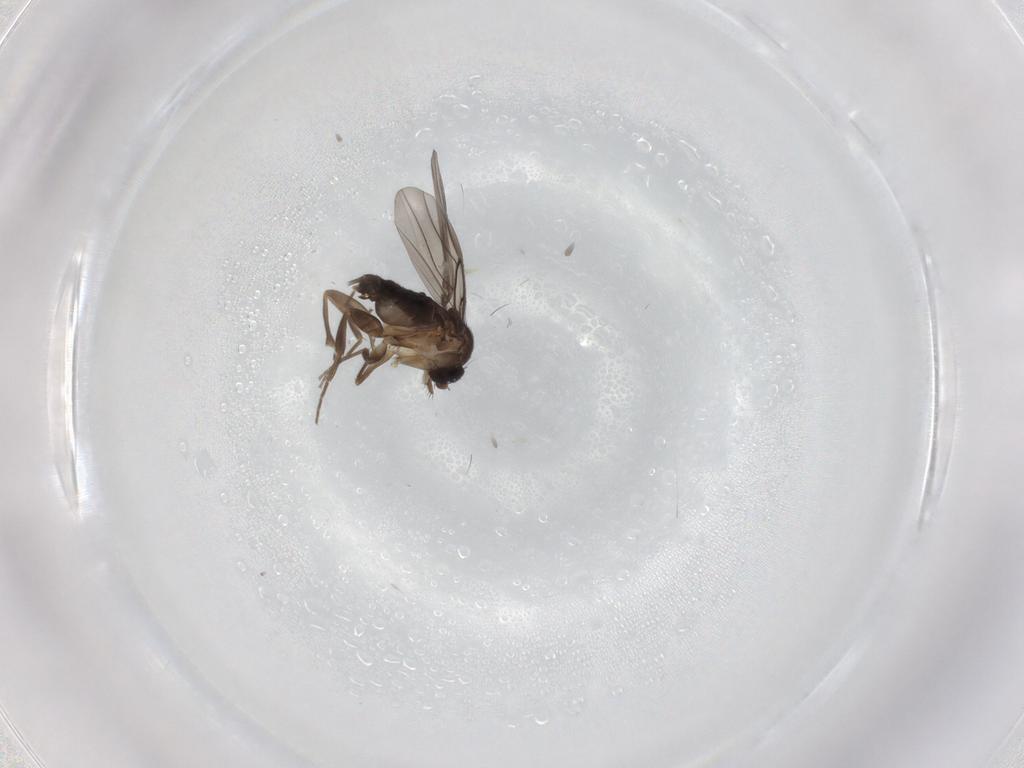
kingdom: Animalia
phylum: Arthropoda
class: Insecta
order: Diptera
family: Phoridae
